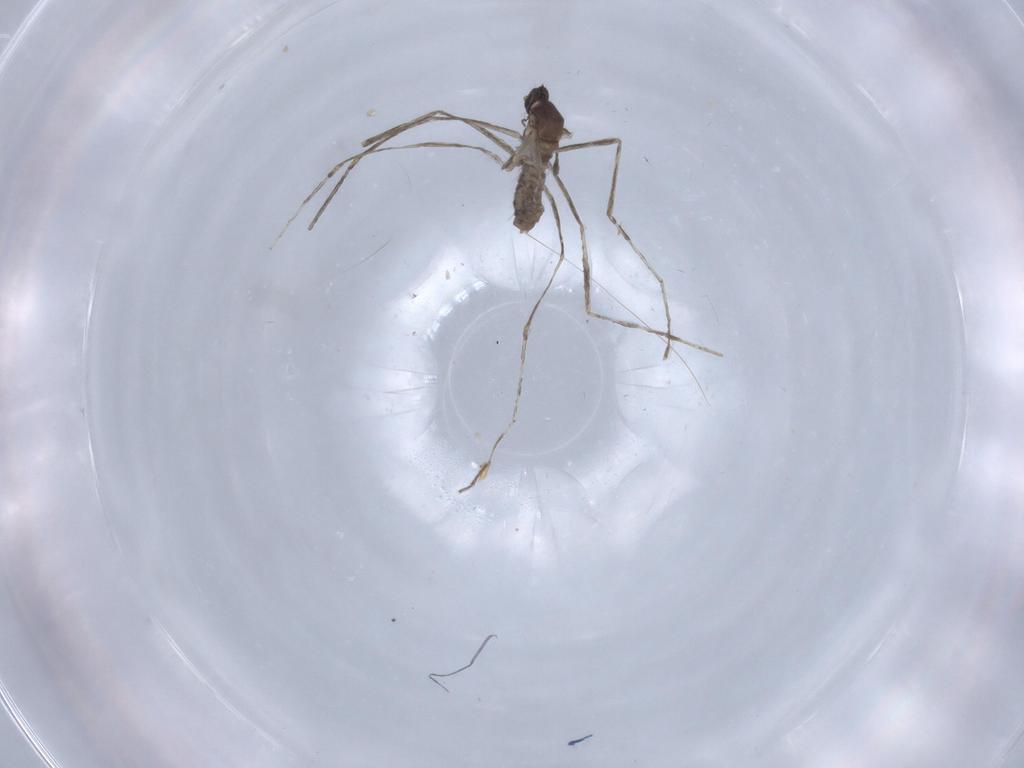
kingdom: Animalia
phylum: Arthropoda
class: Insecta
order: Diptera
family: Cecidomyiidae
